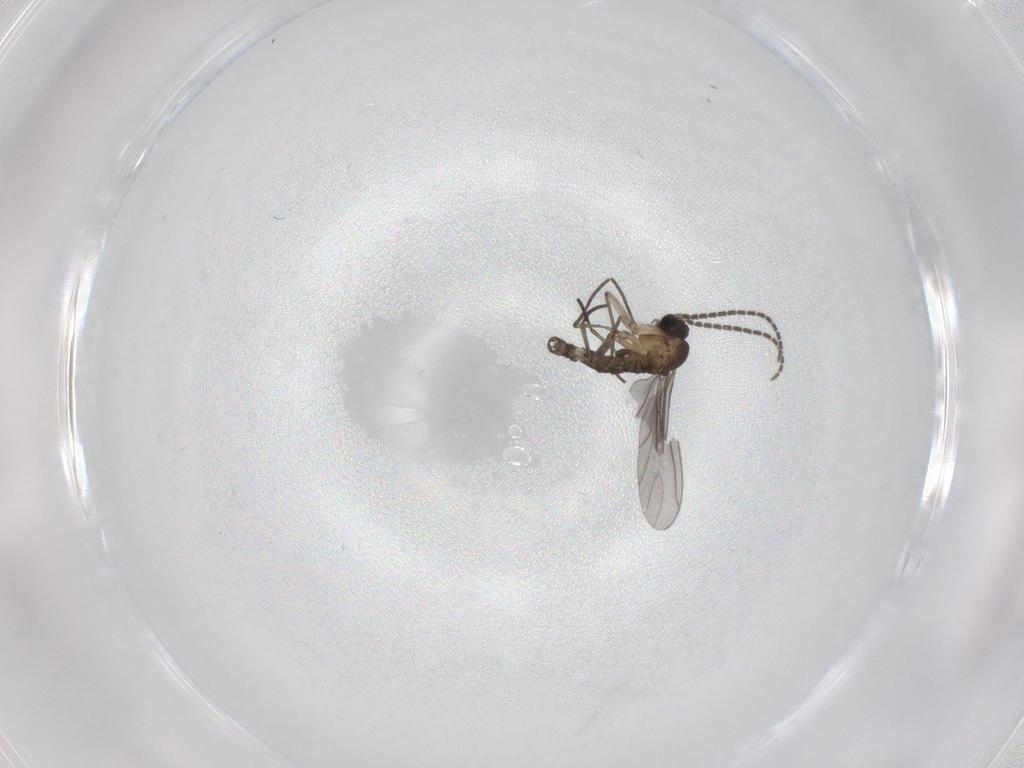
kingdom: Animalia
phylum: Arthropoda
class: Insecta
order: Diptera
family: Sciaridae
